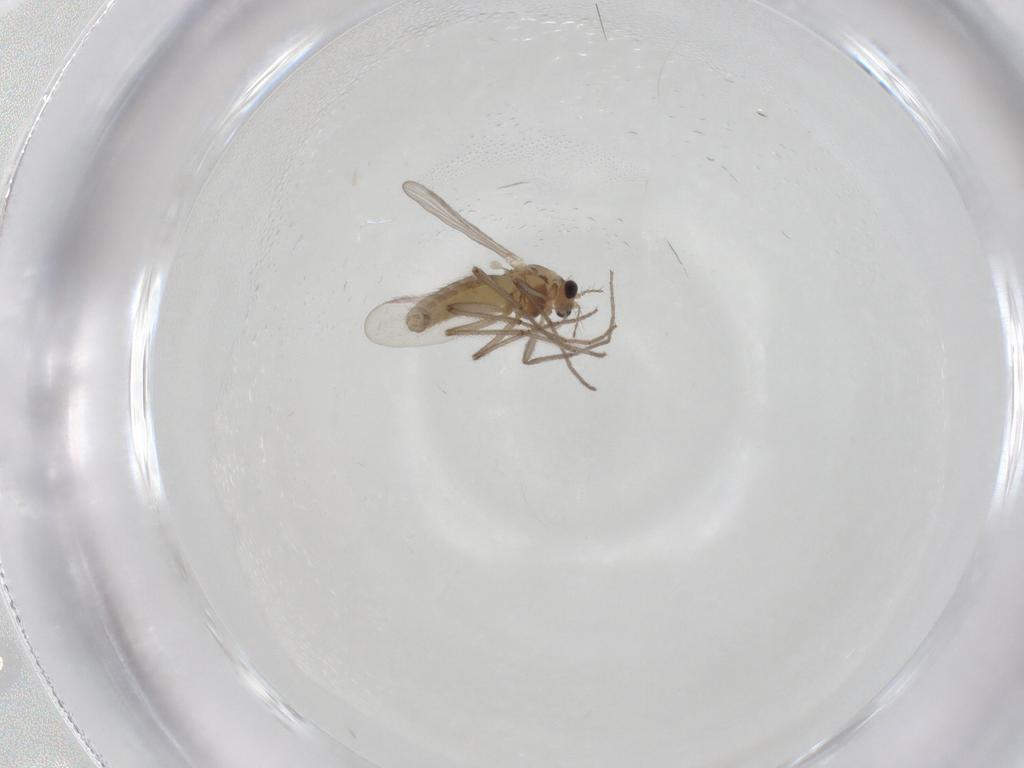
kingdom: Animalia
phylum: Arthropoda
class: Insecta
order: Diptera
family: Chironomidae
